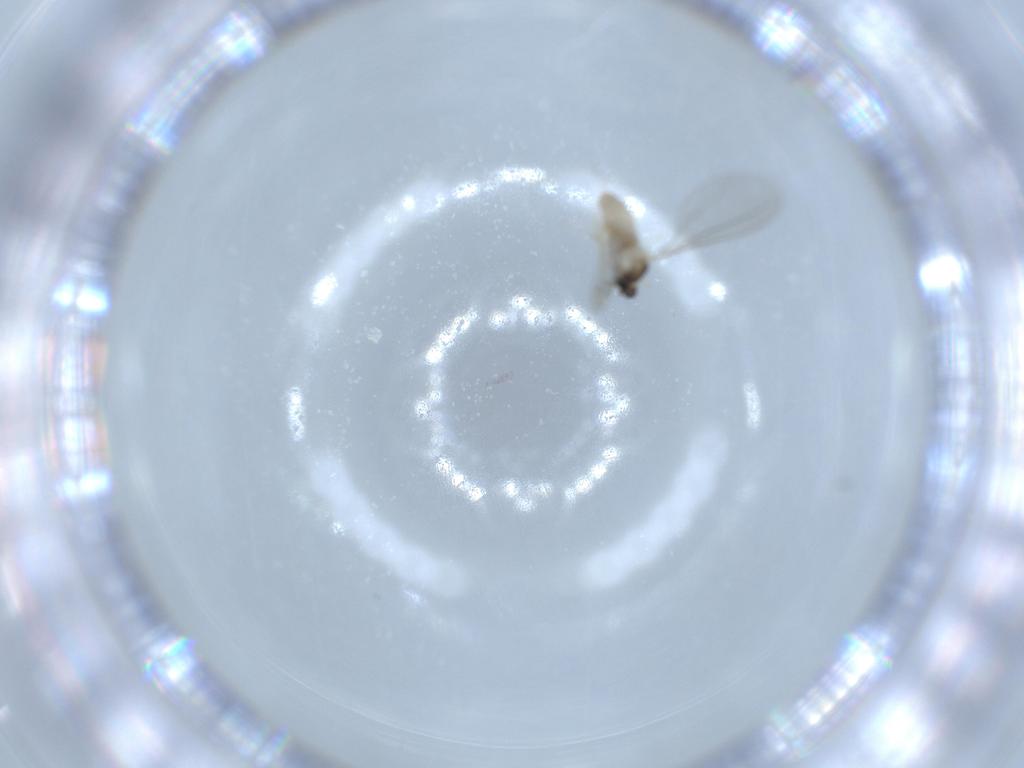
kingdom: Animalia
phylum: Arthropoda
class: Insecta
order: Diptera
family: Cecidomyiidae
